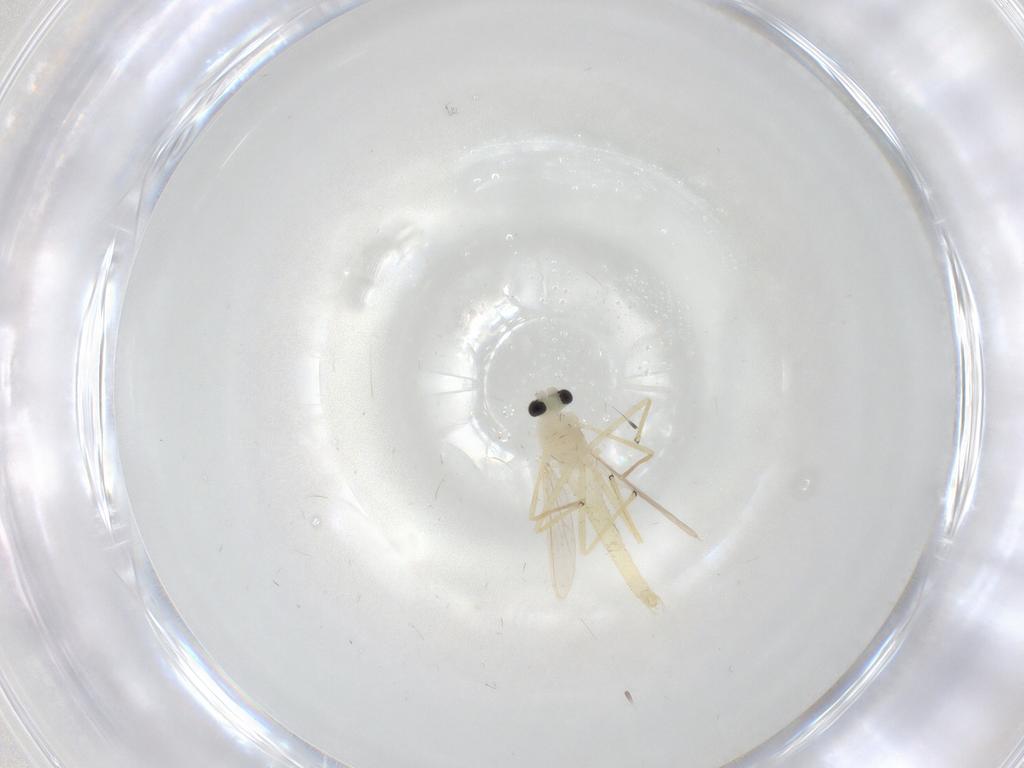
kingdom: Animalia
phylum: Arthropoda
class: Insecta
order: Diptera
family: Chironomidae
